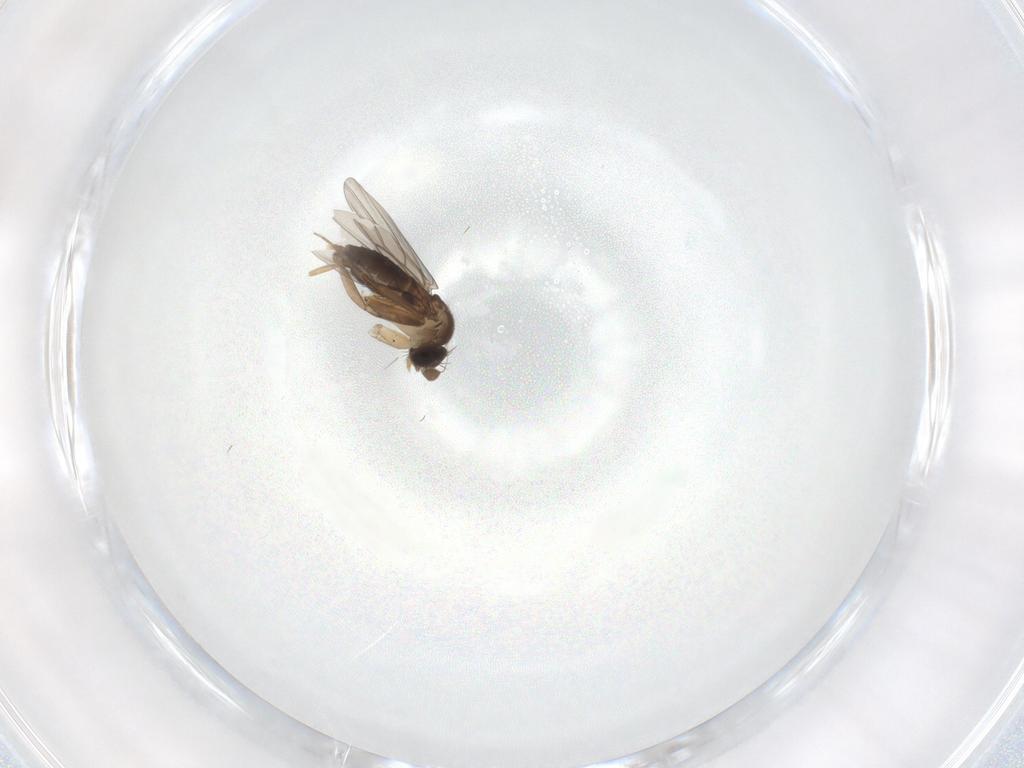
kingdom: Animalia
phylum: Arthropoda
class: Insecta
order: Diptera
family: Phoridae
